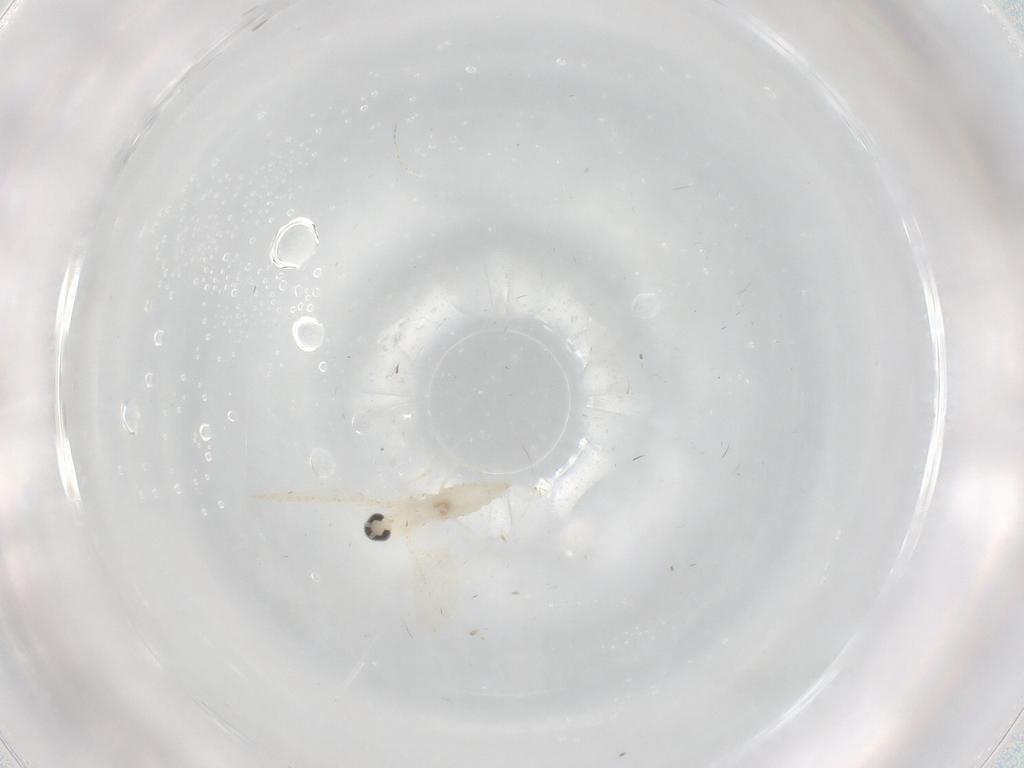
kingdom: Animalia
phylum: Arthropoda
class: Insecta
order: Diptera
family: Cecidomyiidae
